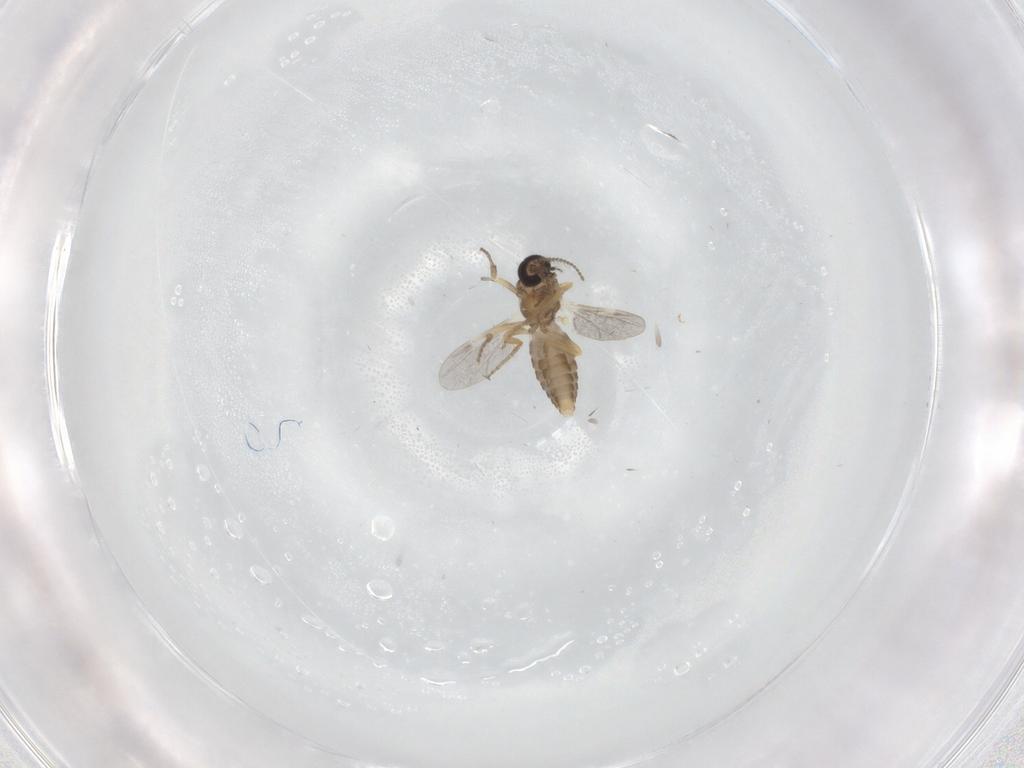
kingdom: Animalia
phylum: Arthropoda
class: Insecta
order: Diptera
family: Ceratopogonidae
